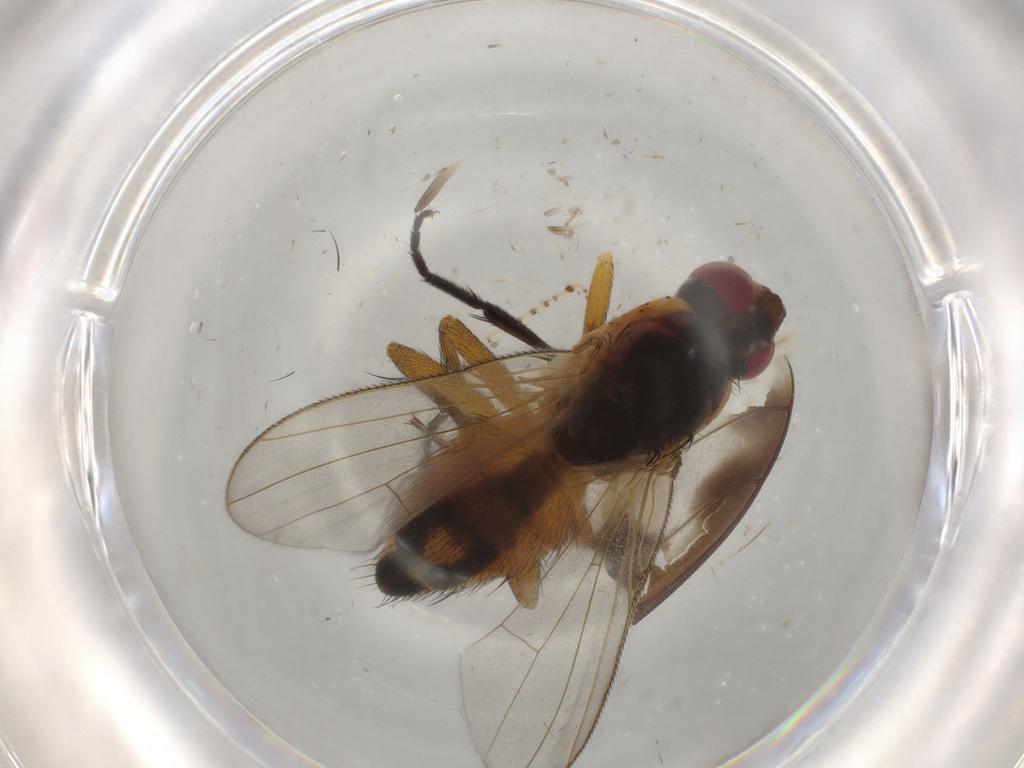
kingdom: Animalia
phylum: Arthropoda
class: Insecta
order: Diptera
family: Muscidae
